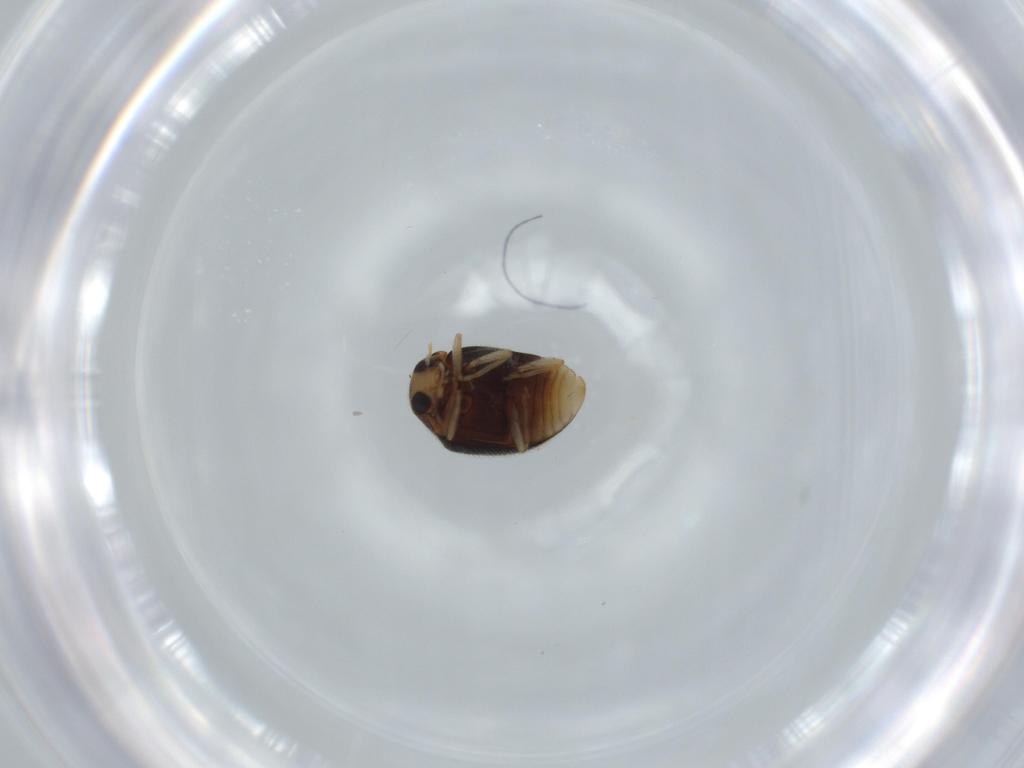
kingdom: Animalia
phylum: Arthropoda
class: Insecta
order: Coleoptera
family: Coccinellidae
